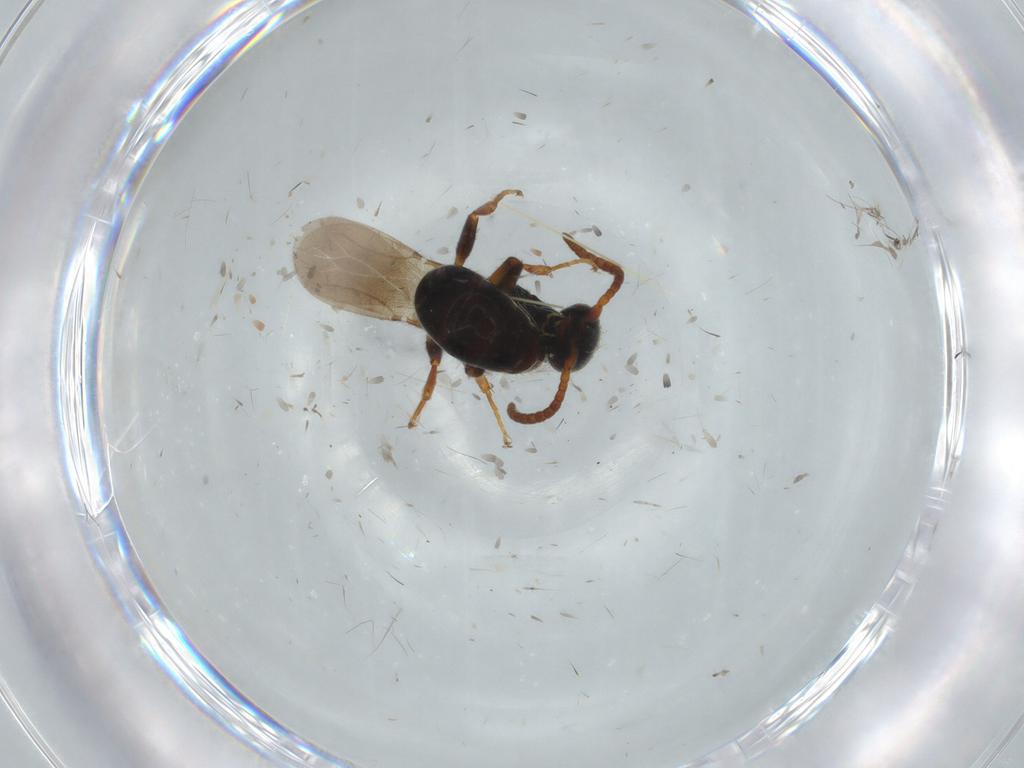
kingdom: Animalia
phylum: Arthropoda
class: Insecta
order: Hymenoptera
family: Bethylidae
